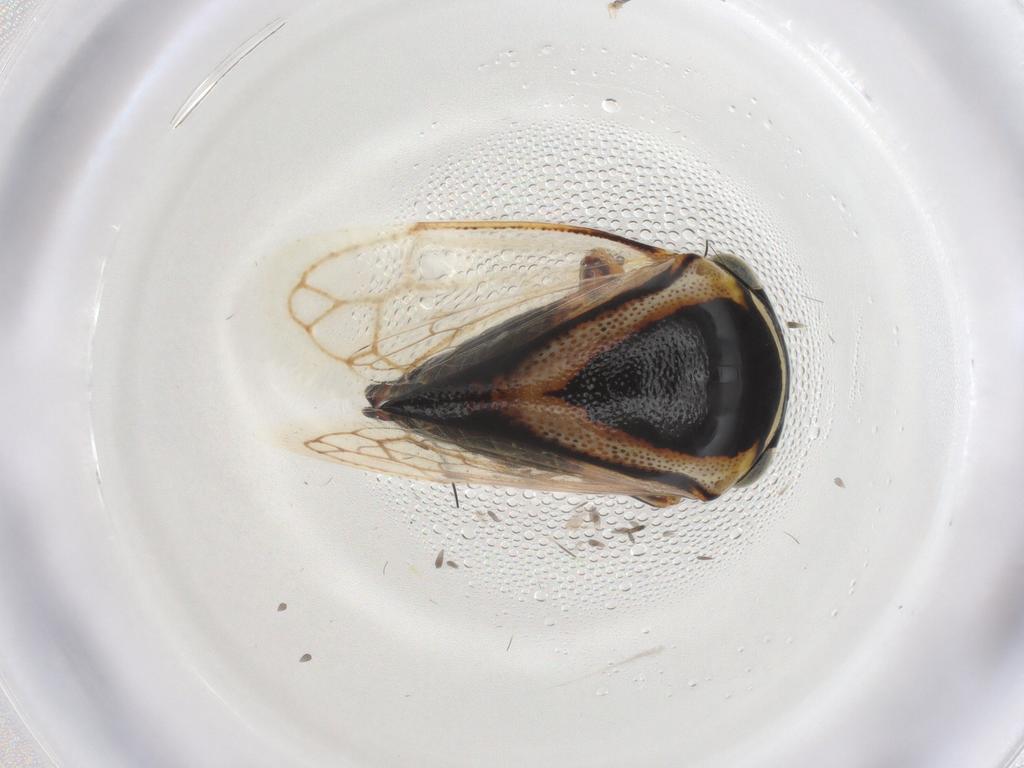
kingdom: Animalia
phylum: Arthropoda
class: Insecta
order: Hemiptera
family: Membracidae
